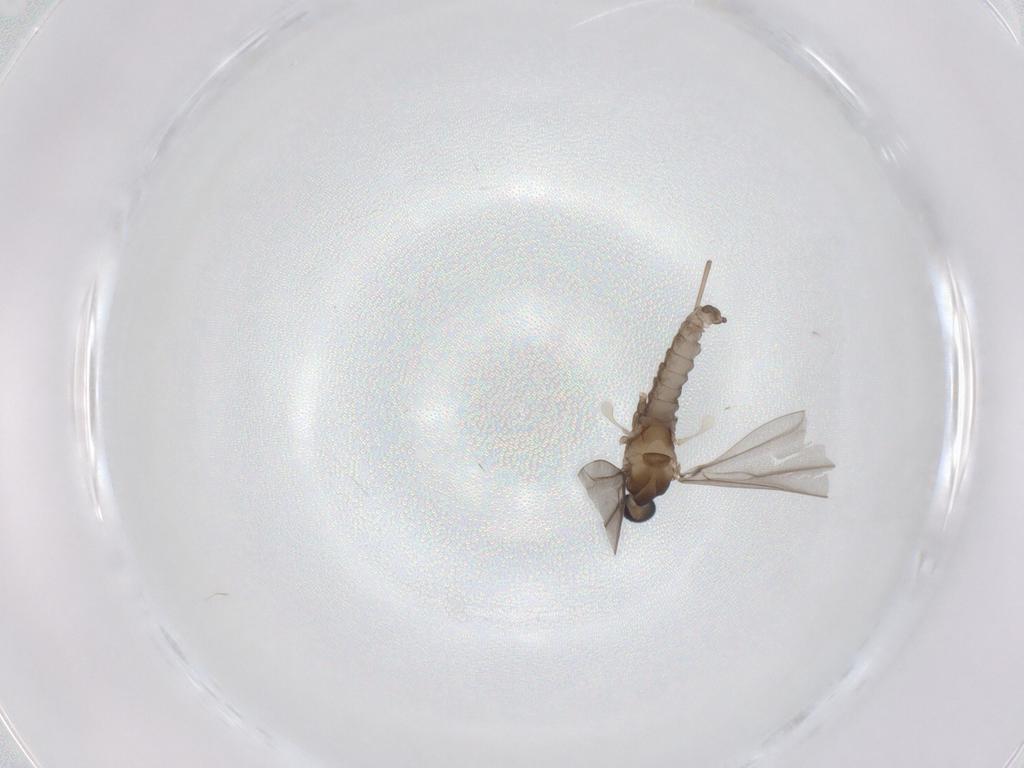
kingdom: Animalia
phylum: Arthropoda
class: Insecta
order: Diptera
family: Cecidomyiidae
